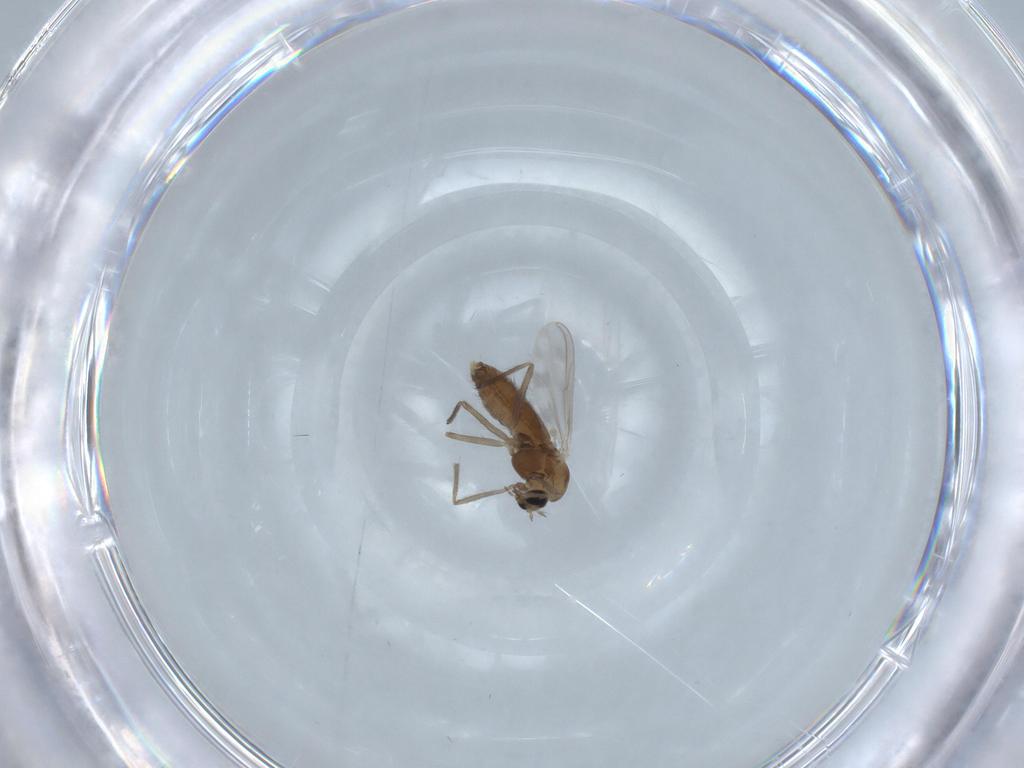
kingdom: Animalia
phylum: Arthropoda
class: Insecta
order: Diptera
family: Chironomidae
